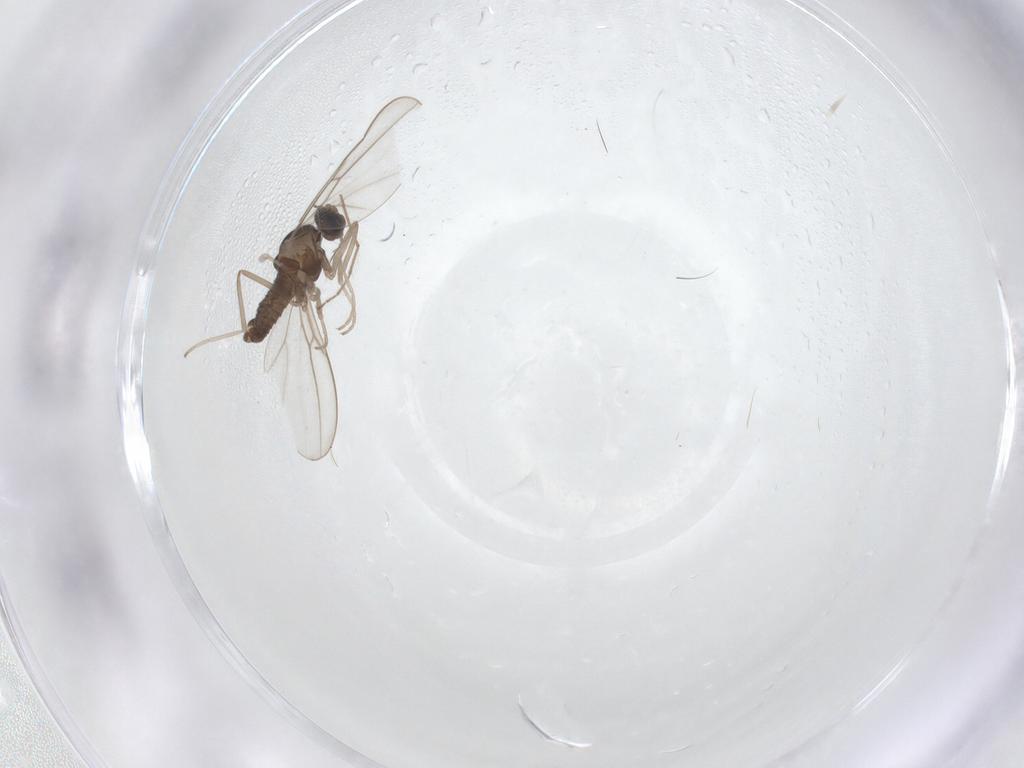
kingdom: Animalia
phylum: Arthropoda
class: Insecta
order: Diptera
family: Cecidomyiidae
